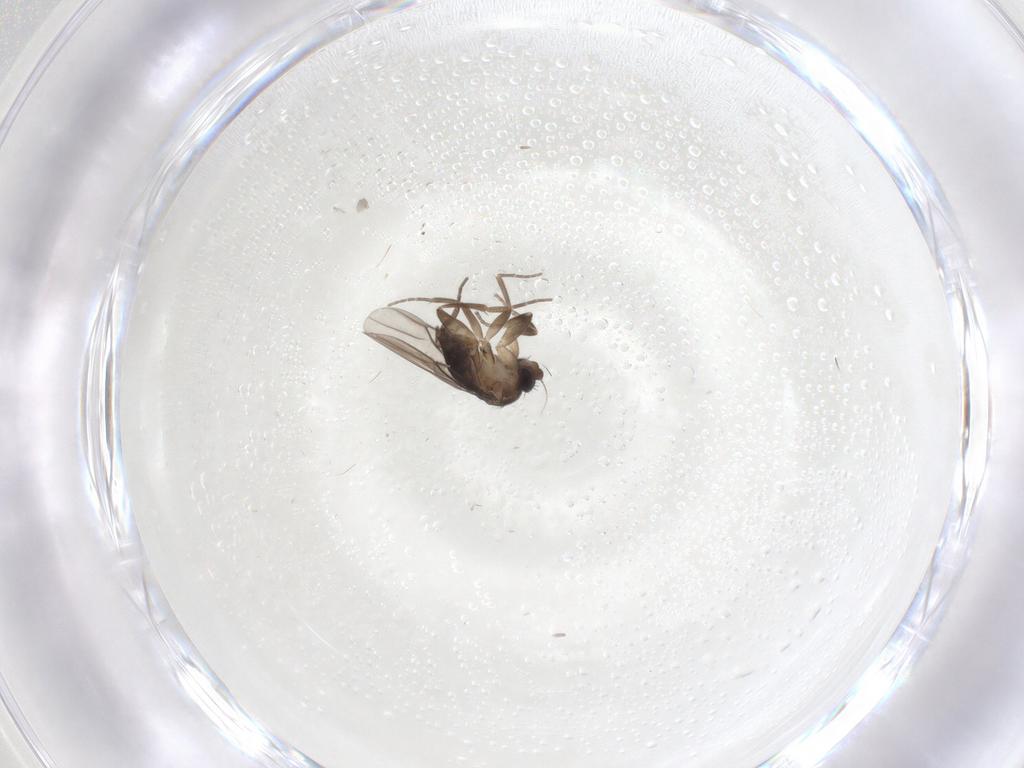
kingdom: Animalia
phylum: Arthropoda
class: Insecta
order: Diptera
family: Phoridae
